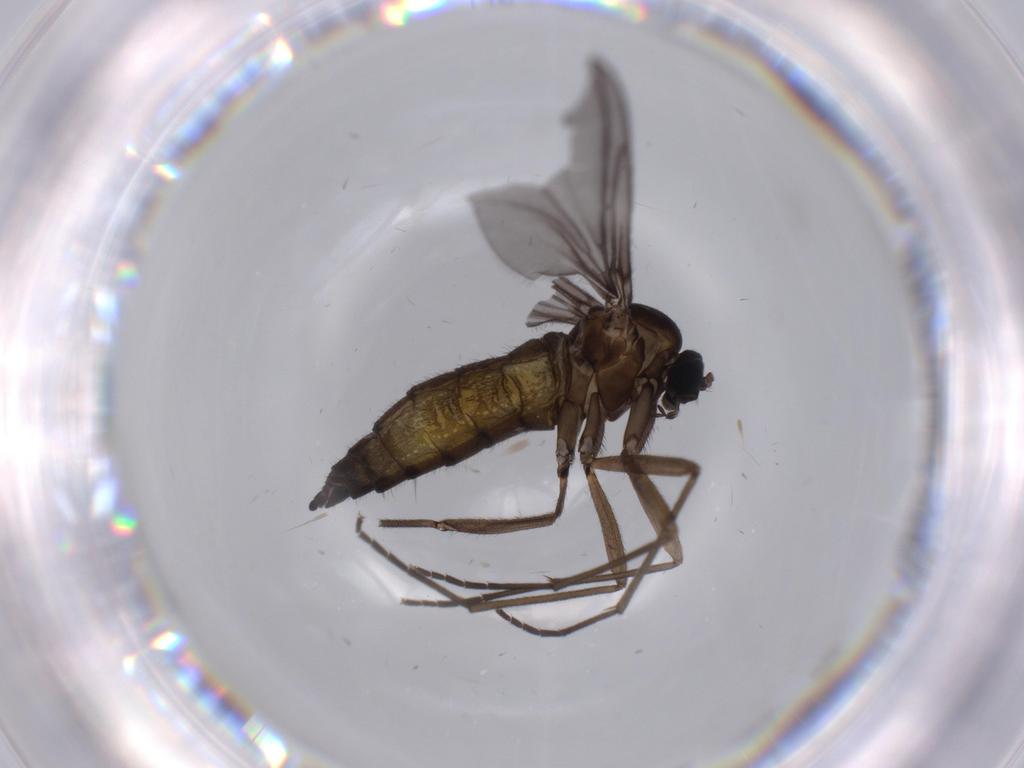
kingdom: Animalia
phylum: Arthropoda
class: Insecta
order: Diptera
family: Sciaridae
